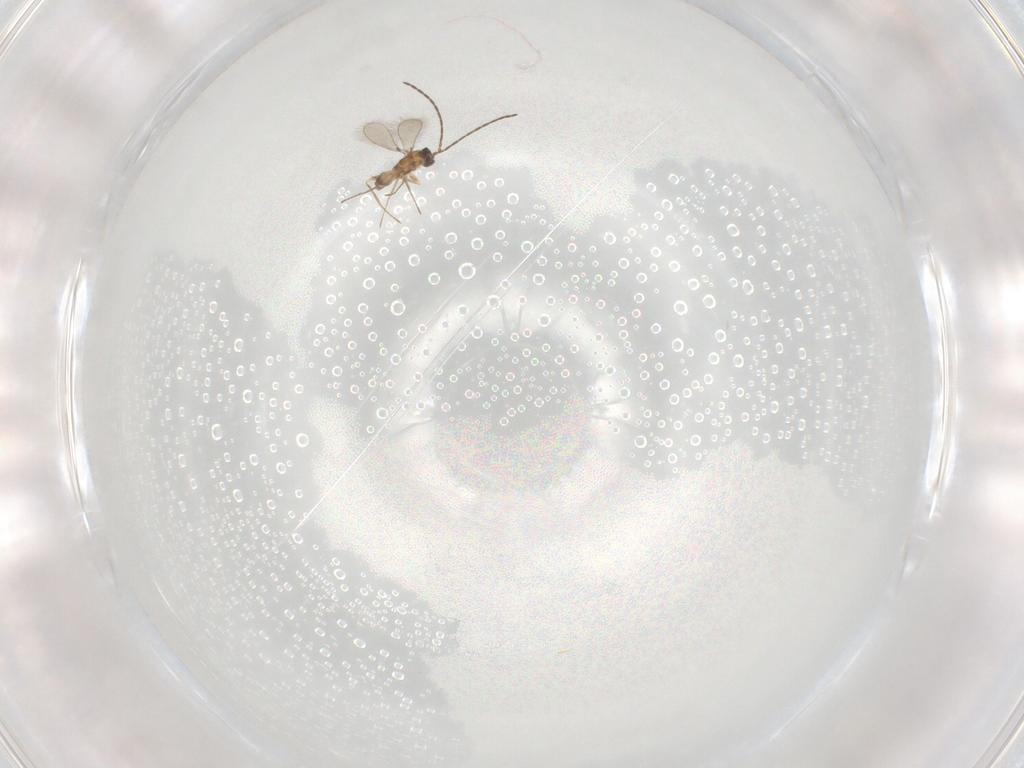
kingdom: Animalia
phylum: Arthropoda
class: Insecta
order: Hymenoptera
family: Mymaridae
